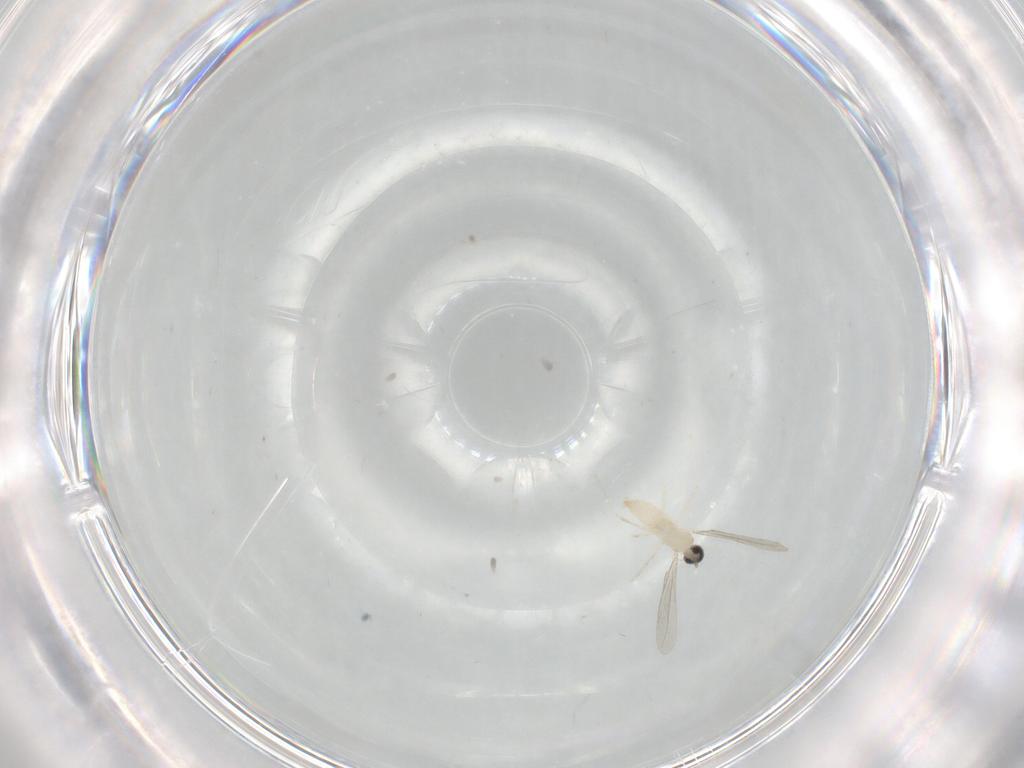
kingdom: Animalia
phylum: Arthropoda
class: Insecta
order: Diptera
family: Cecidomyiidae
